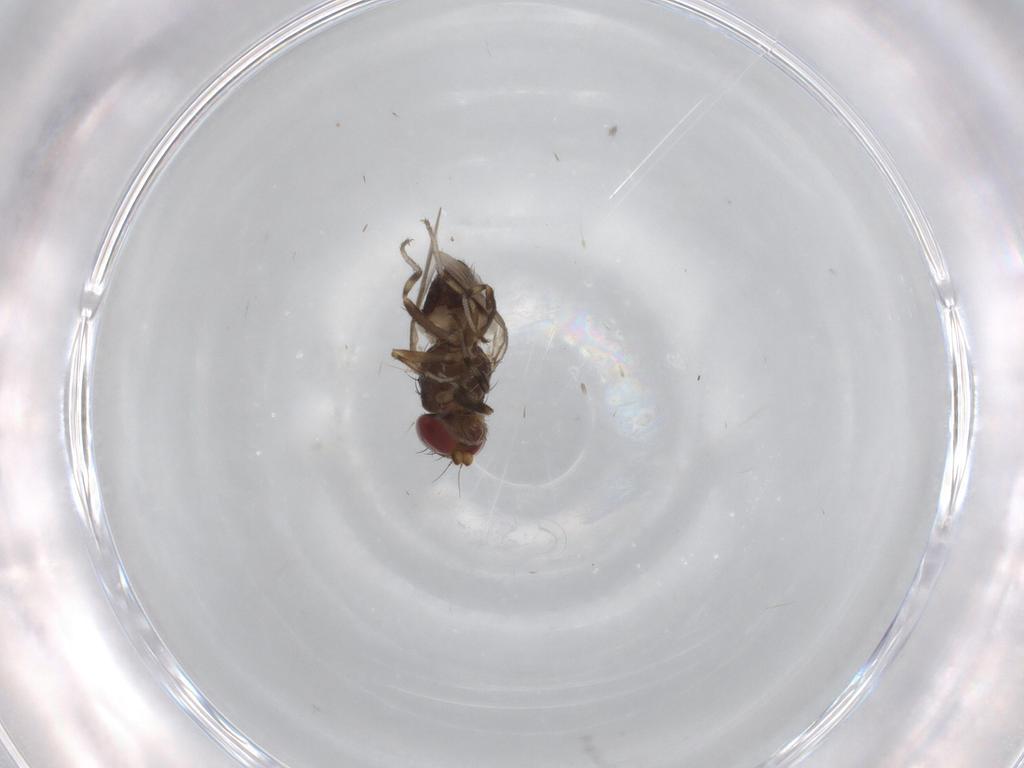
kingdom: Animalia
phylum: Arthropoda
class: Insecta
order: Diptera
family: Heleomyzidae
